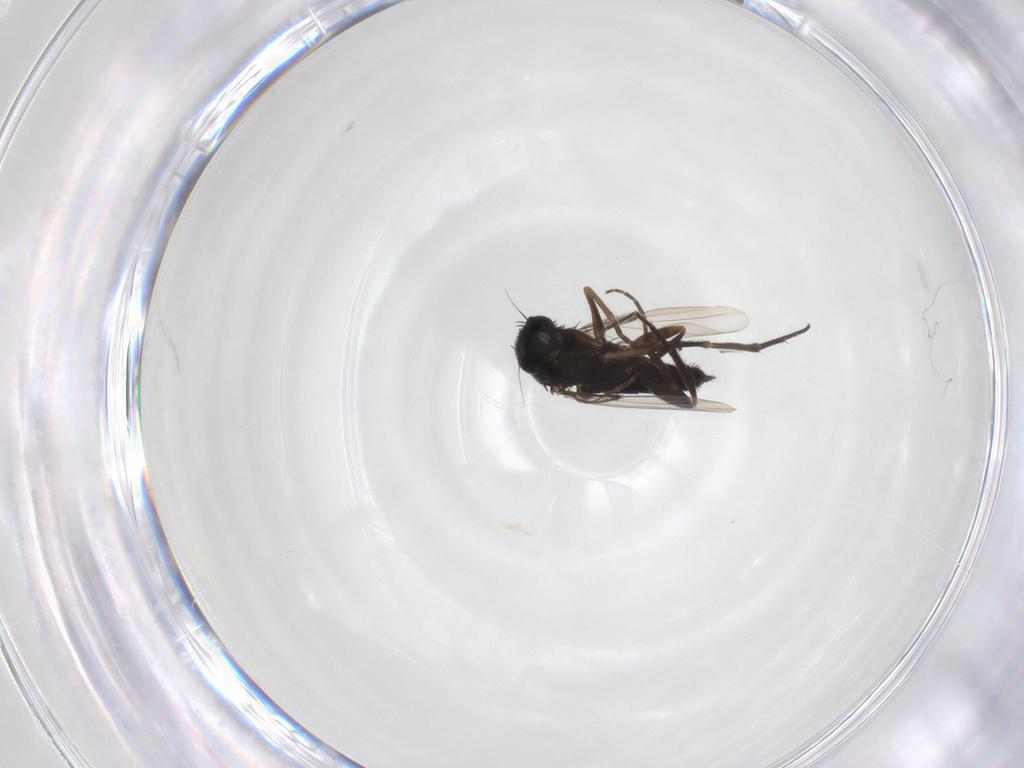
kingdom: Animalia
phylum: Arthropoda
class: Insecta
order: Diptera
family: Phoridae
